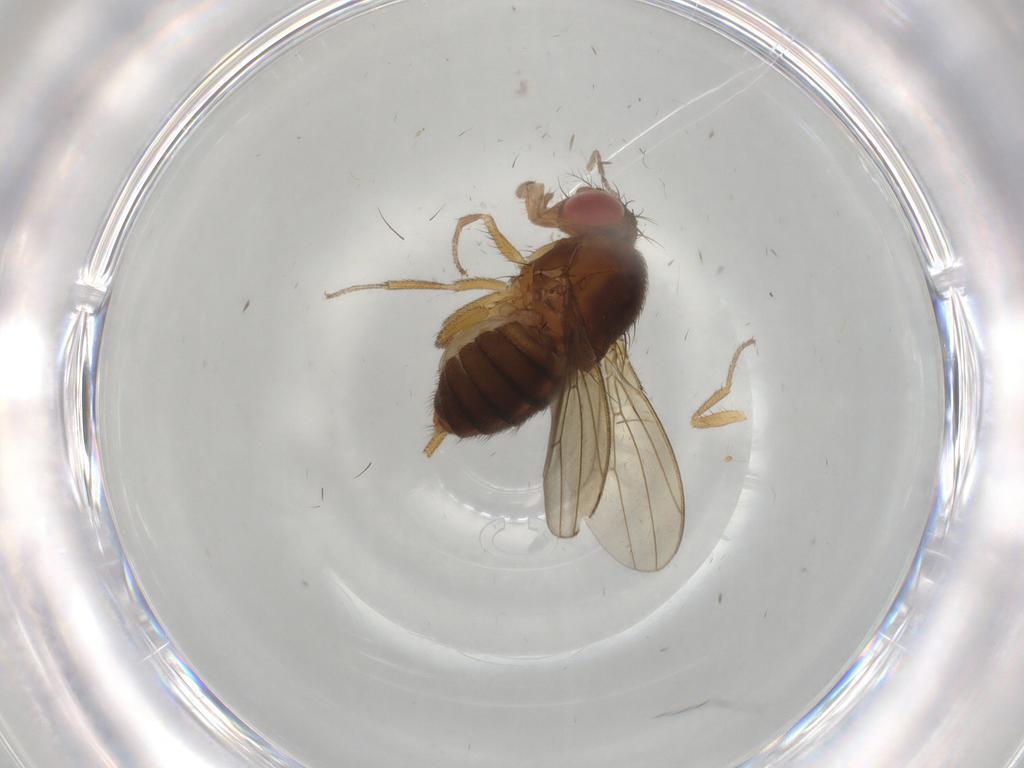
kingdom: Animalia
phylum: Arthropoda
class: Insecta
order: Diptera
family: Drosophilidae
